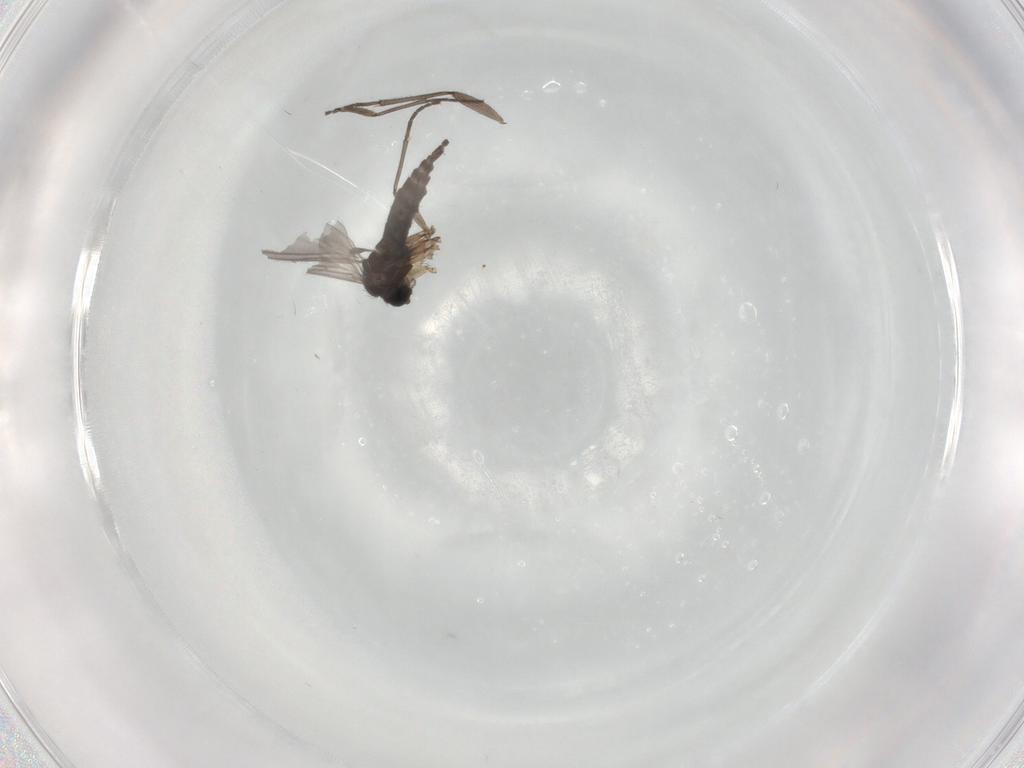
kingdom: Animalia
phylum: Arthropoda
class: Insecta
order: Diptera
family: Sciaridae
